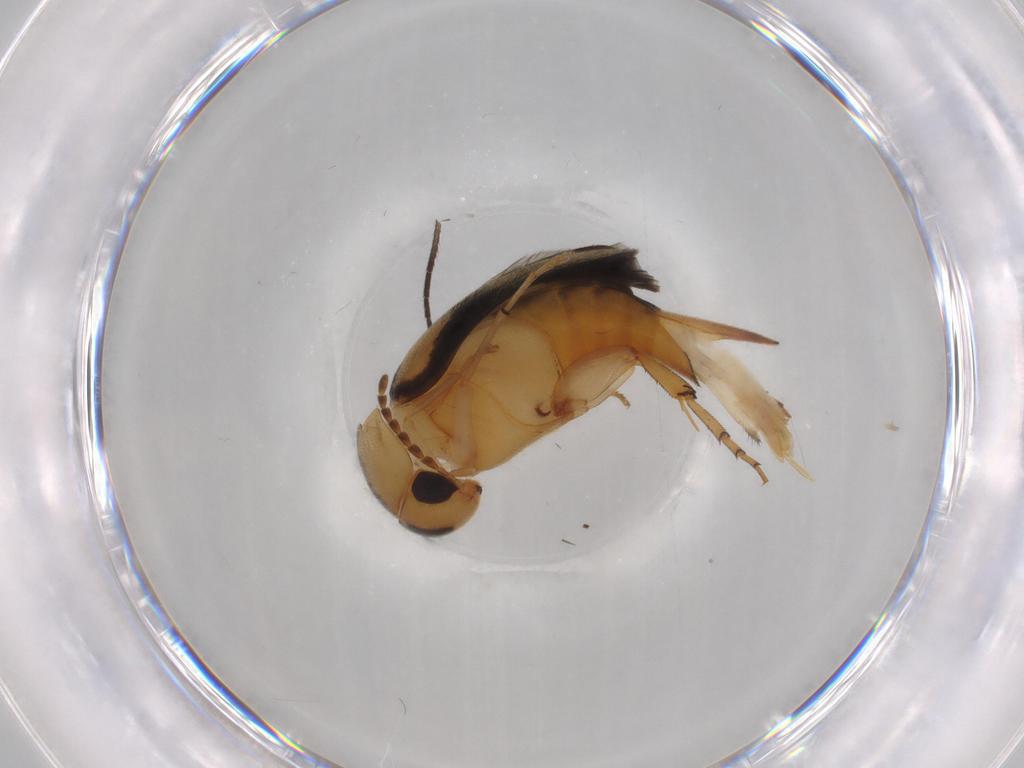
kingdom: Animalia
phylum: Arthropoda
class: Insecta
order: Coleoptera
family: Mordellidae
